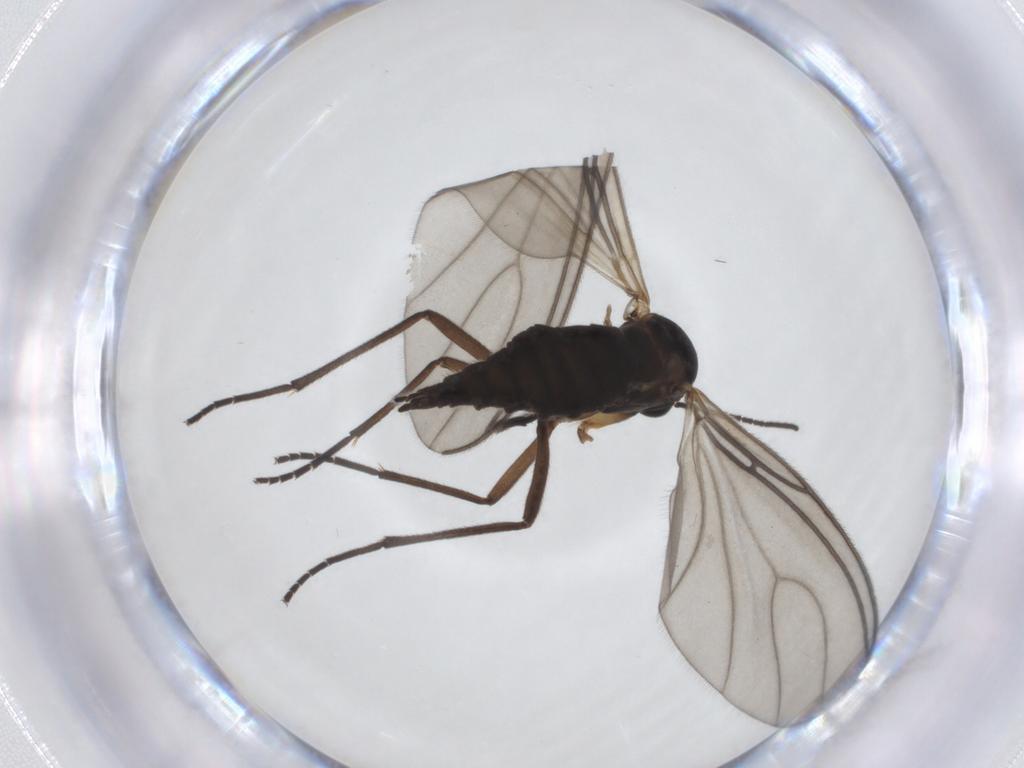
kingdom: Animalia
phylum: Arthropoda
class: Insecta
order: Diptera
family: Sciaridae
